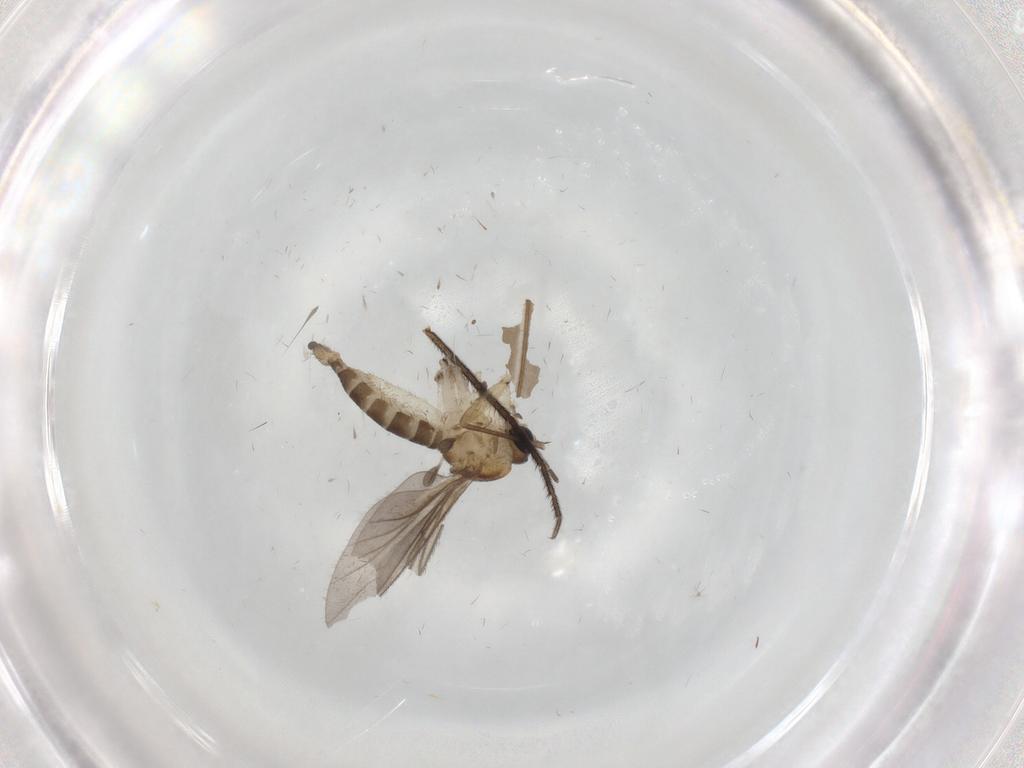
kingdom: Animalia
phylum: Arthropoda
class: Insecta
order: Diptera
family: Sciaridae
